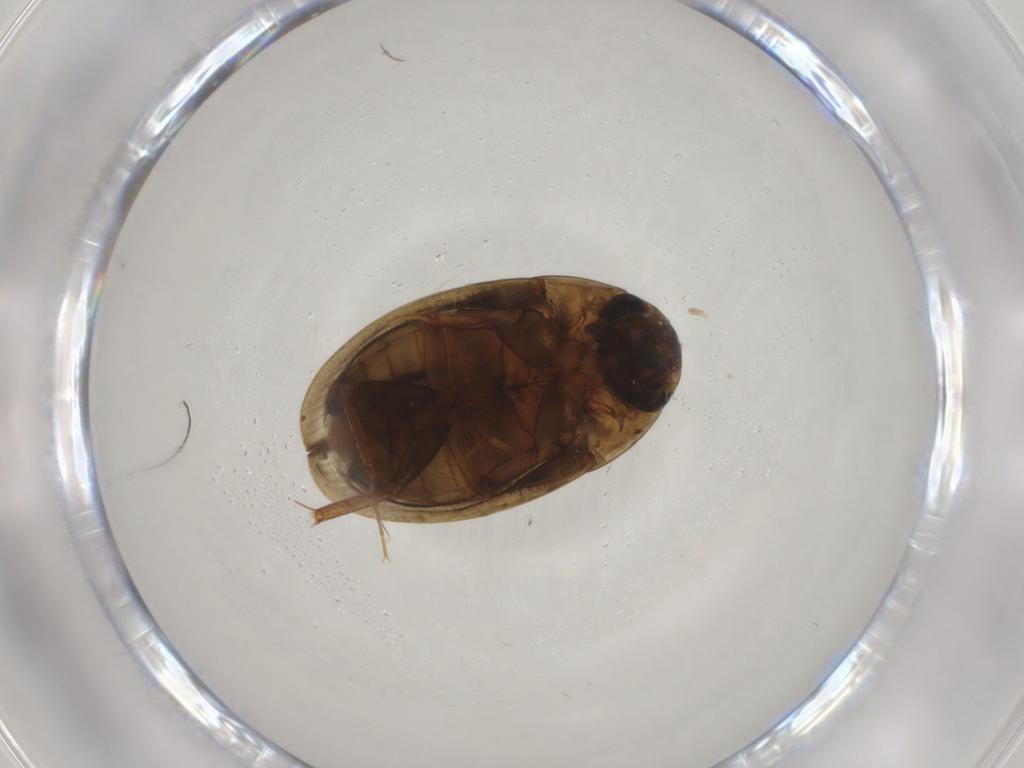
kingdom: Animalia
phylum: Arthropoda
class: Insecta
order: Coleoptera
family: Hydrophilidae
